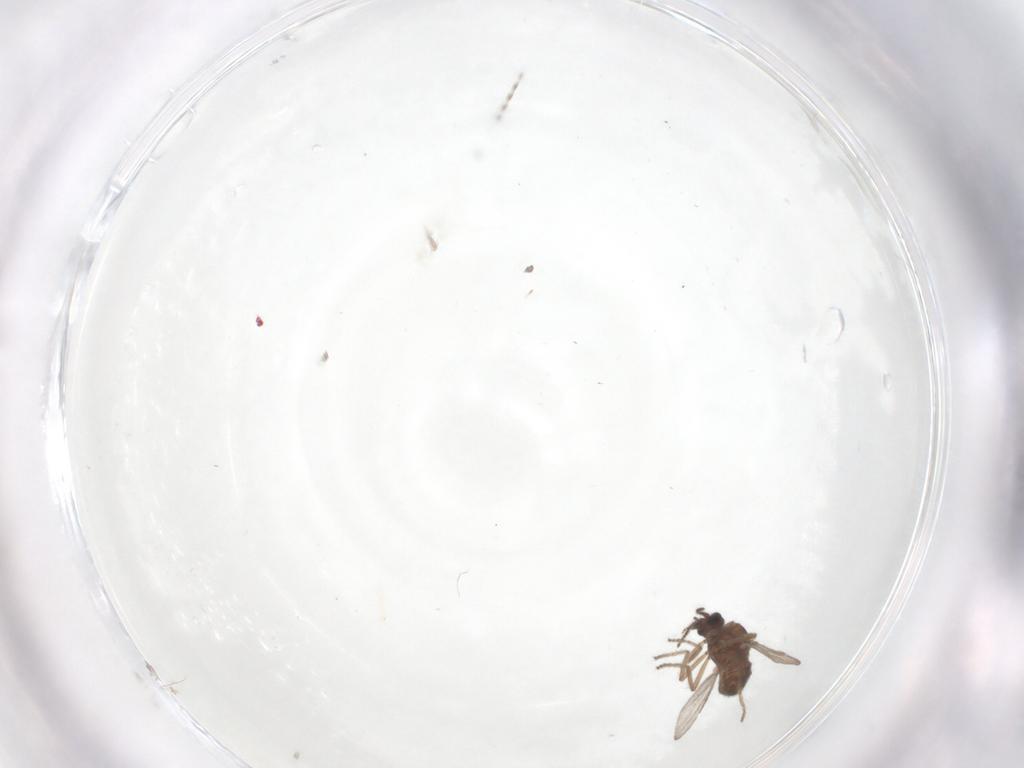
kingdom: Animalia
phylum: Arthropoda
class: Insecta
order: Diptera
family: Ceratopogonidae
